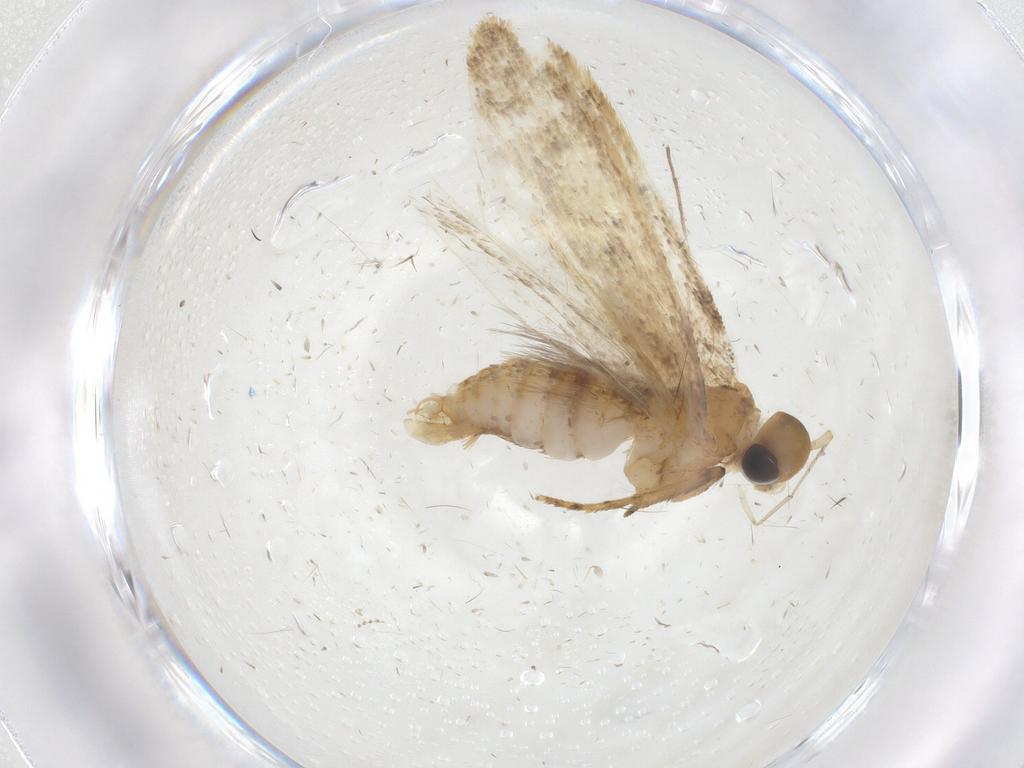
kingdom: Animalia
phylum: Arthropoda
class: Insecta
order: Lepidoptera
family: Oecophoridae
